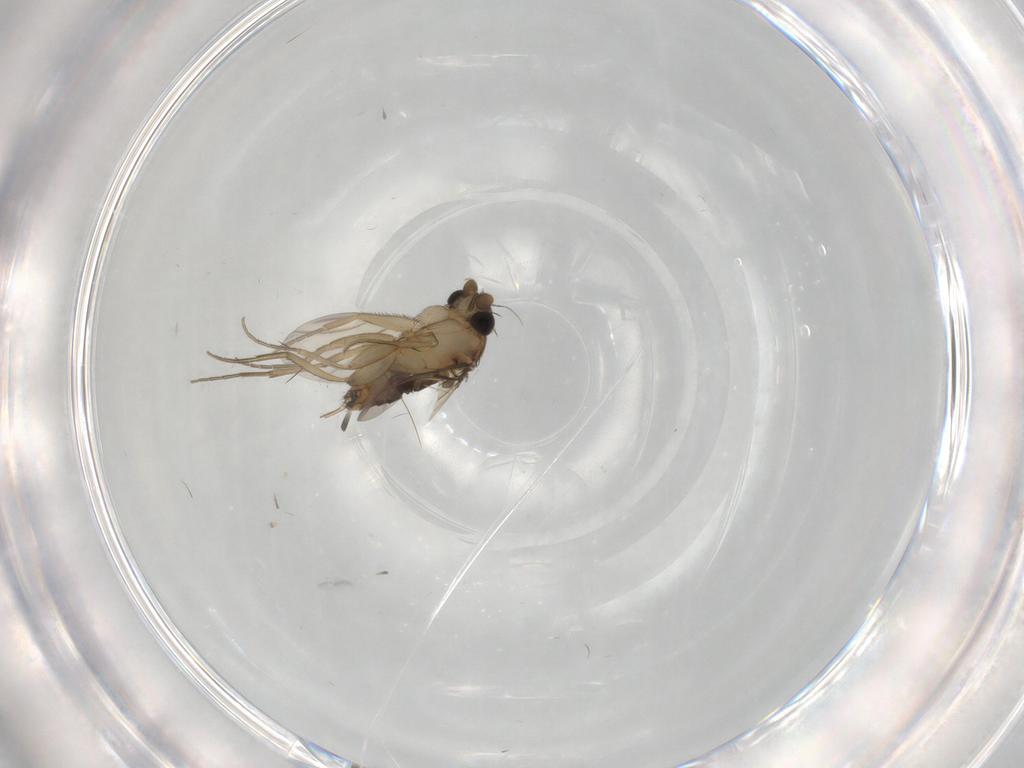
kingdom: Animalia
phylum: Arthropoda
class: Insecta
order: Diptera
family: Phoridae
